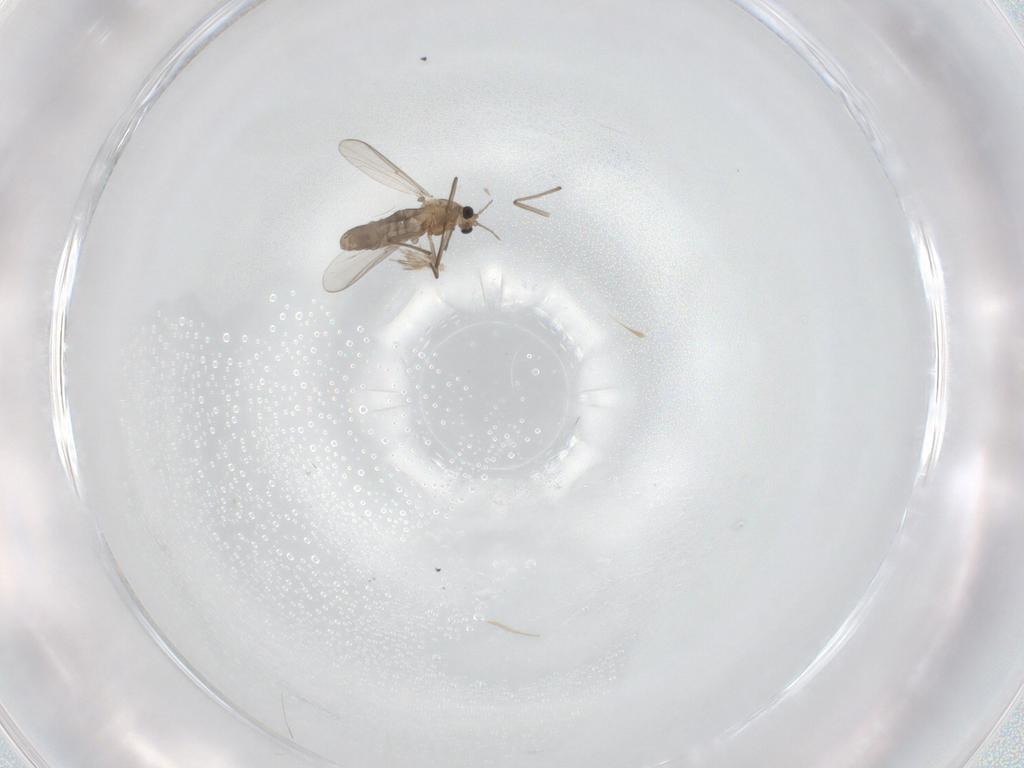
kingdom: Animalia
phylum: Arthropoda
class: Insecta
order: Diptera
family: Chironomidae
